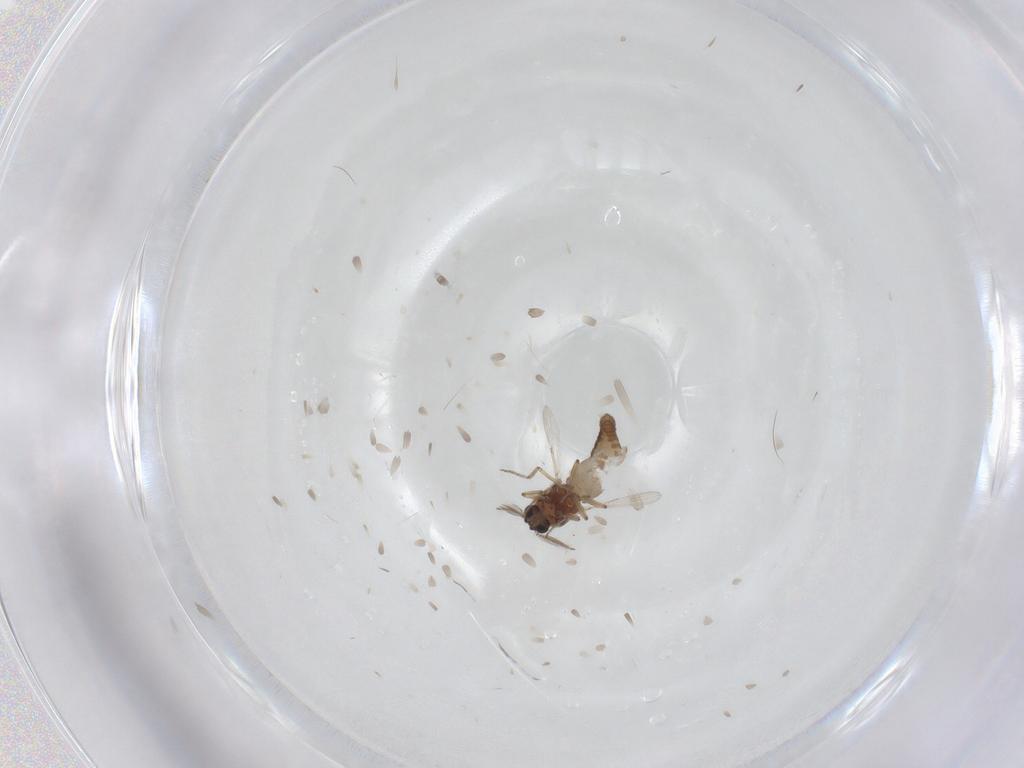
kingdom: Animalia
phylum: Arthropoda
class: Insecta
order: Diptera
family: Ceratopogonidae
